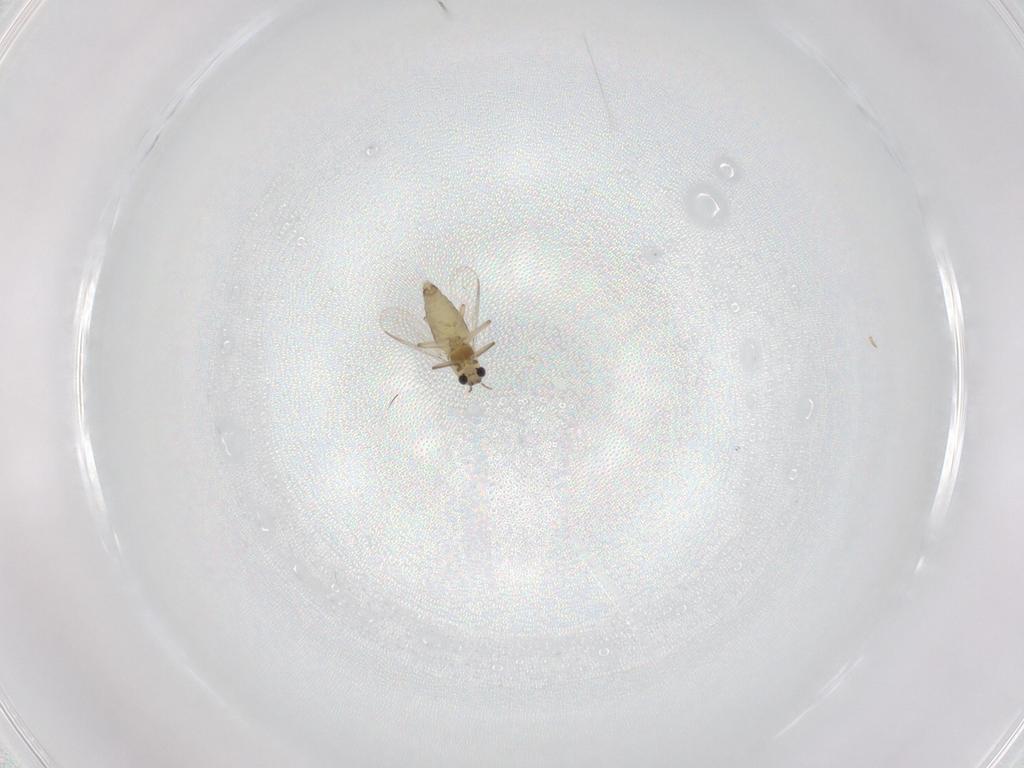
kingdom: Animalia
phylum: Arthropoda
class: Insecta
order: Diptera
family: Chironomidae
